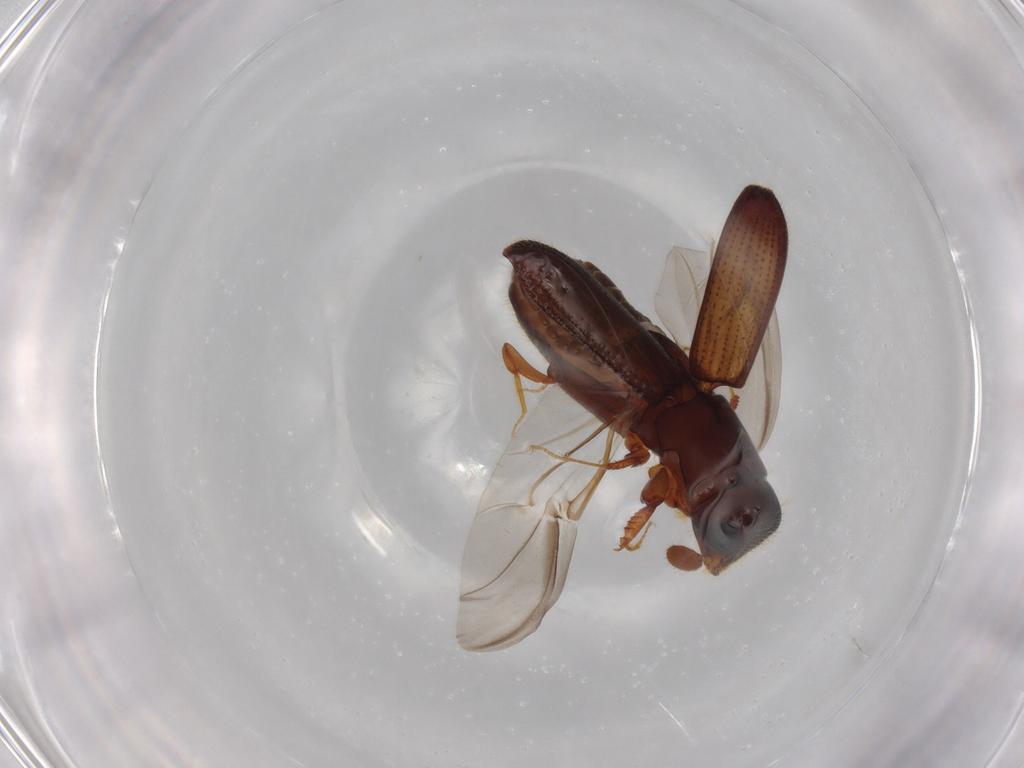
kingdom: Animalia
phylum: Arthropoda
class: Insecta
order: Coleoptera
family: Curculionidae
